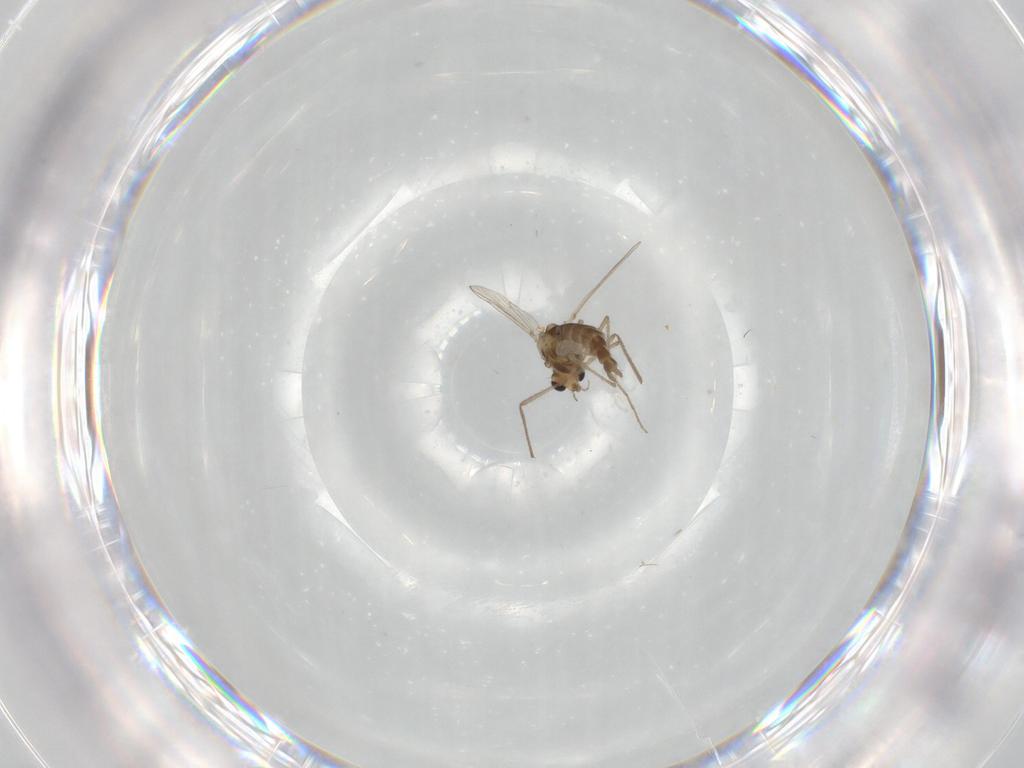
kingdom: Animalia
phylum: Arthropoda
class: Insecta
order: Diptera
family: Chironomidae
